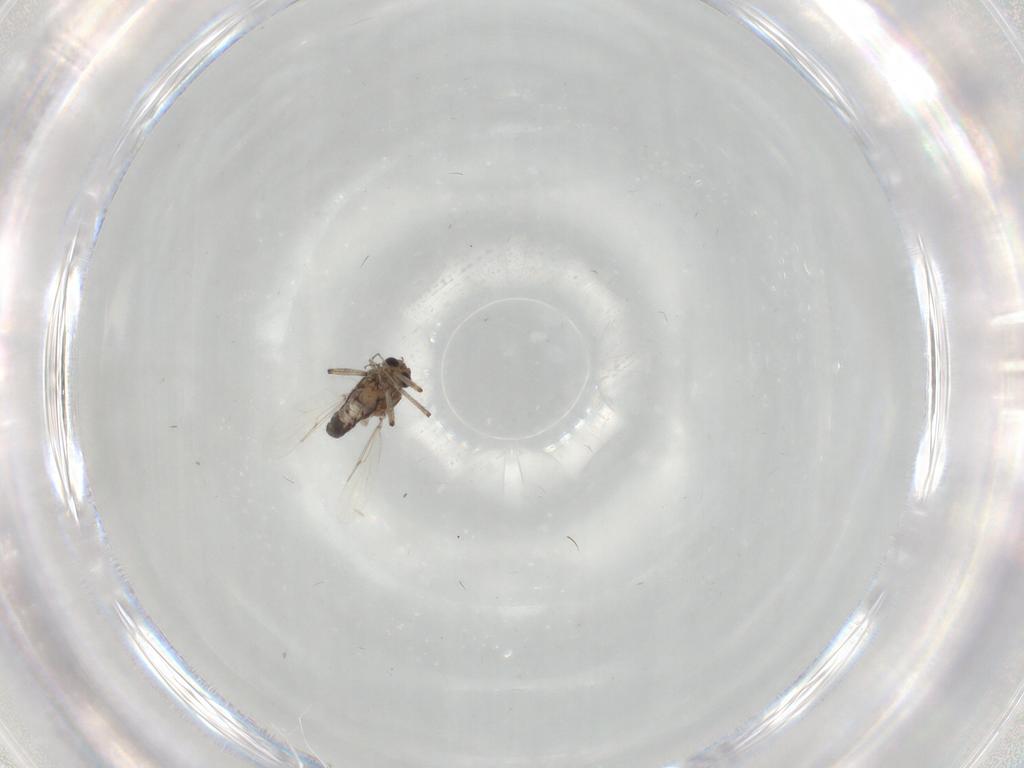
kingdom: Animalia
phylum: Arthropoda
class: Insecta
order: Diptera
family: Ceratopogonidae
